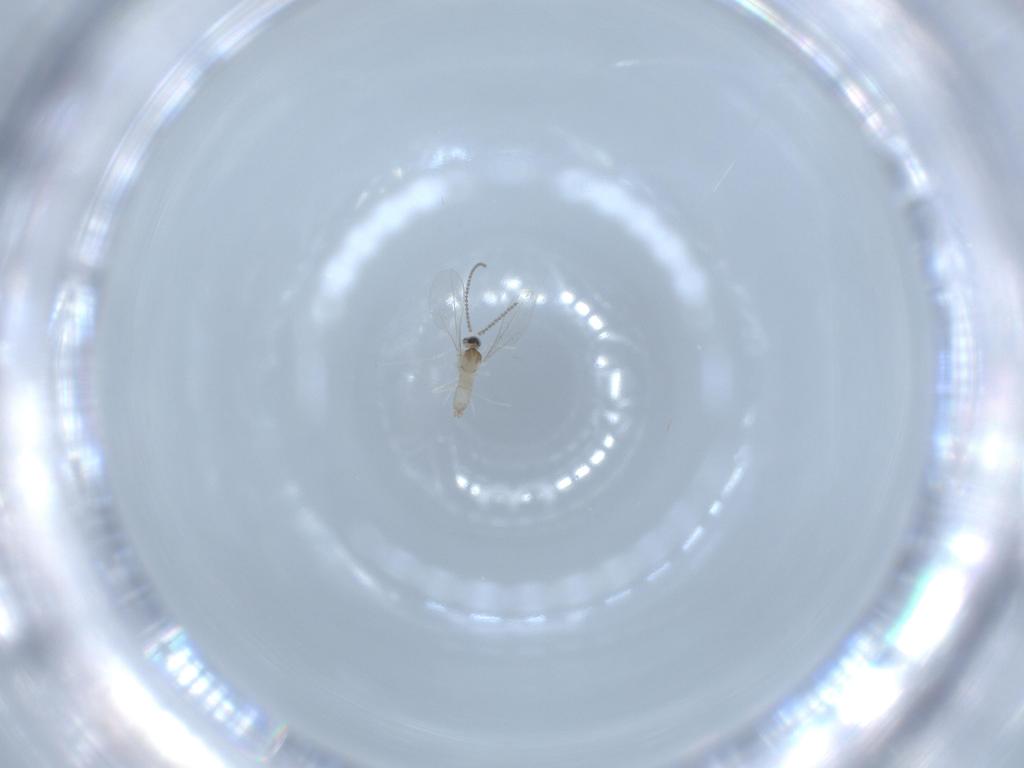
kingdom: Animalia
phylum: Arthropoda
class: Insecta
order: Diptera
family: Cecidomyiidae
